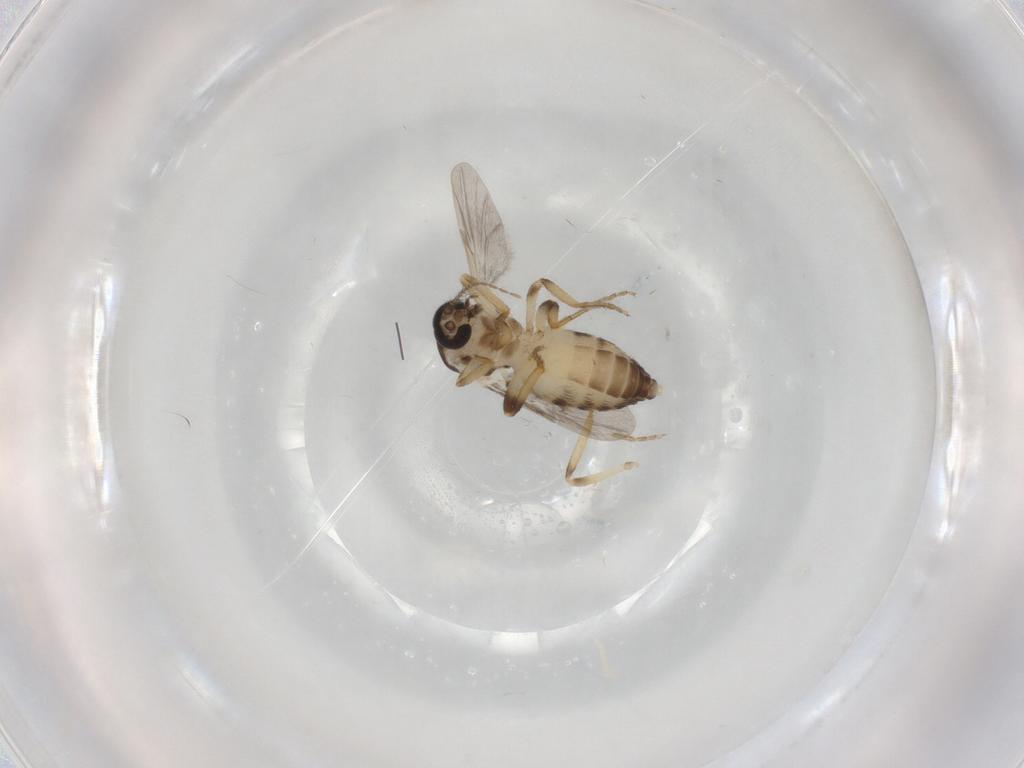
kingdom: Animalia
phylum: Arthropoda
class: Insecta
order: Diptera
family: Ceratopogonidae
